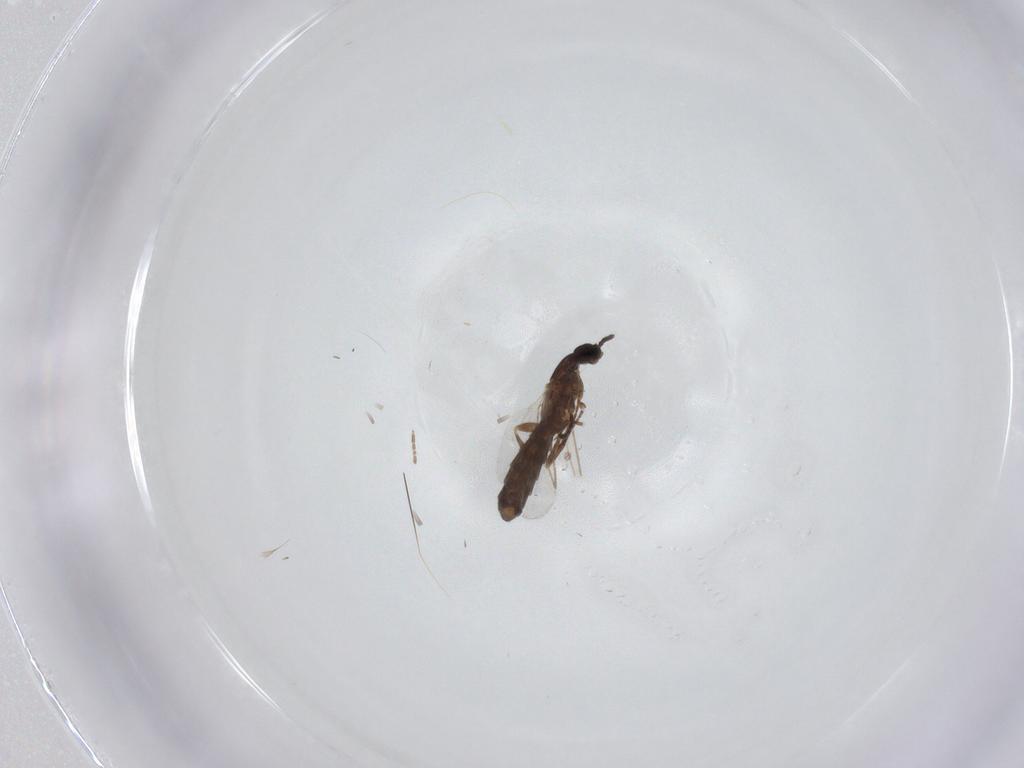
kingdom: Animalia
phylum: Arthropoda
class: Insecta
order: Diptera
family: Scatopsidae
